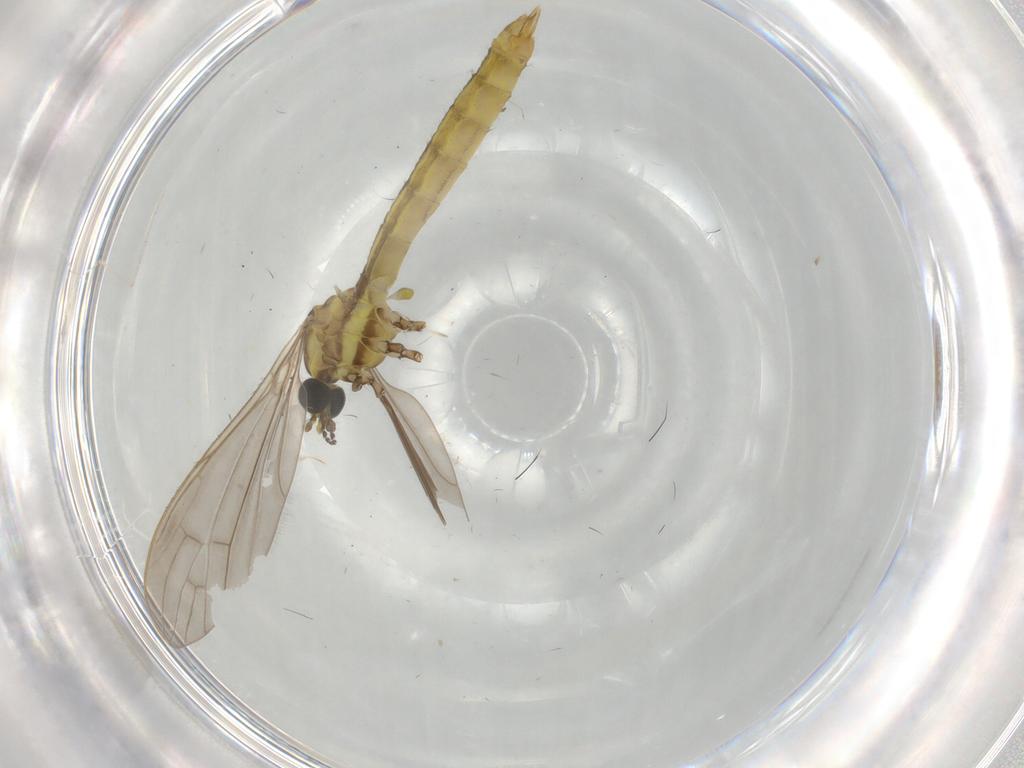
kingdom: Animalia
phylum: Arthropoda
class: Insecta
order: Diptera
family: Limoniidae
